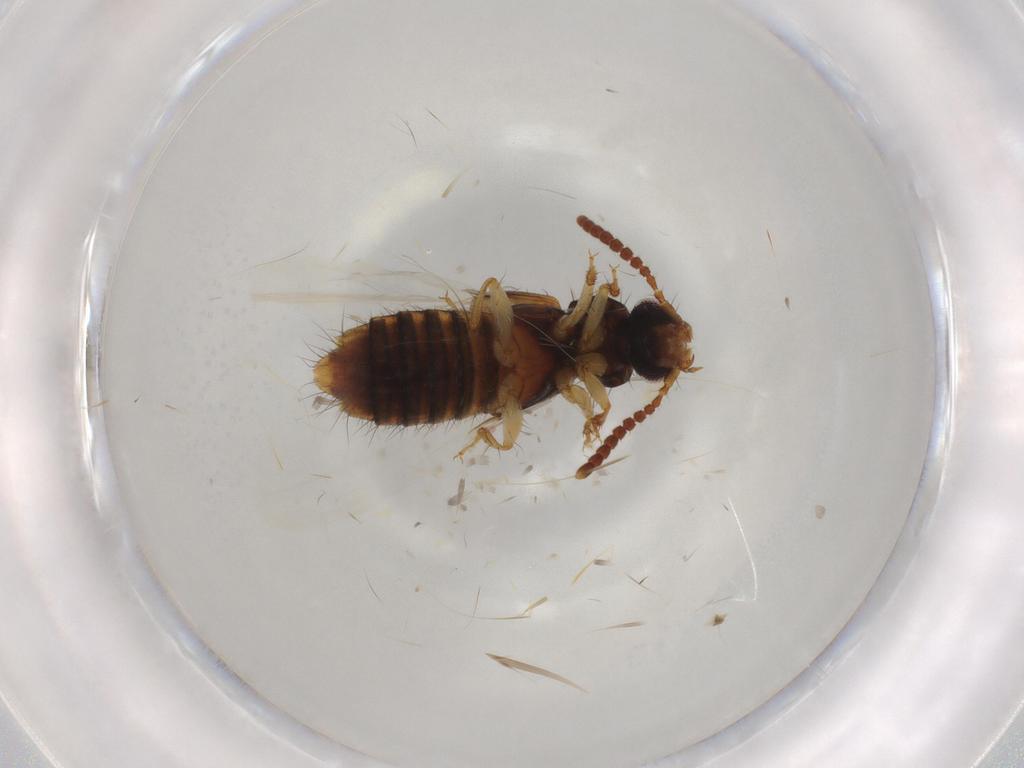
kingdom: Animalia
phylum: Arthropoda
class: Insecta
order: Coleoptera
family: Staphylinidae
